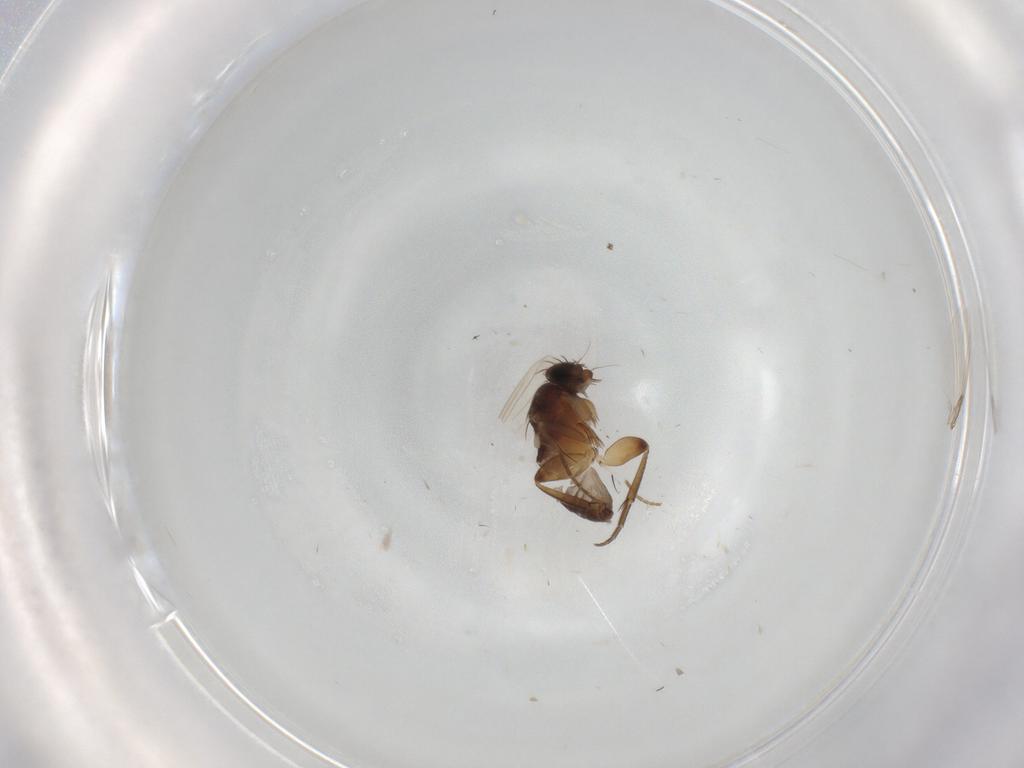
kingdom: Animalia
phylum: Arthropoda
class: Insecta
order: Diptera
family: Phoridae
